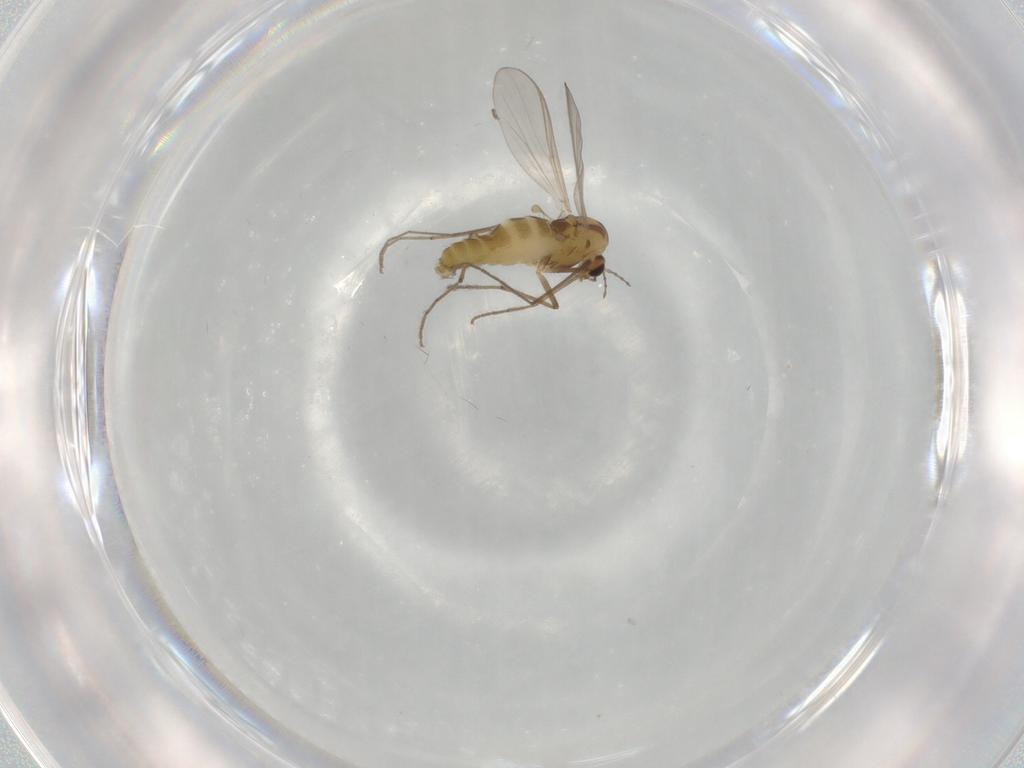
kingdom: Animalia
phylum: Arthropoda
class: Insecta
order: Diptera
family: Chironomidae
